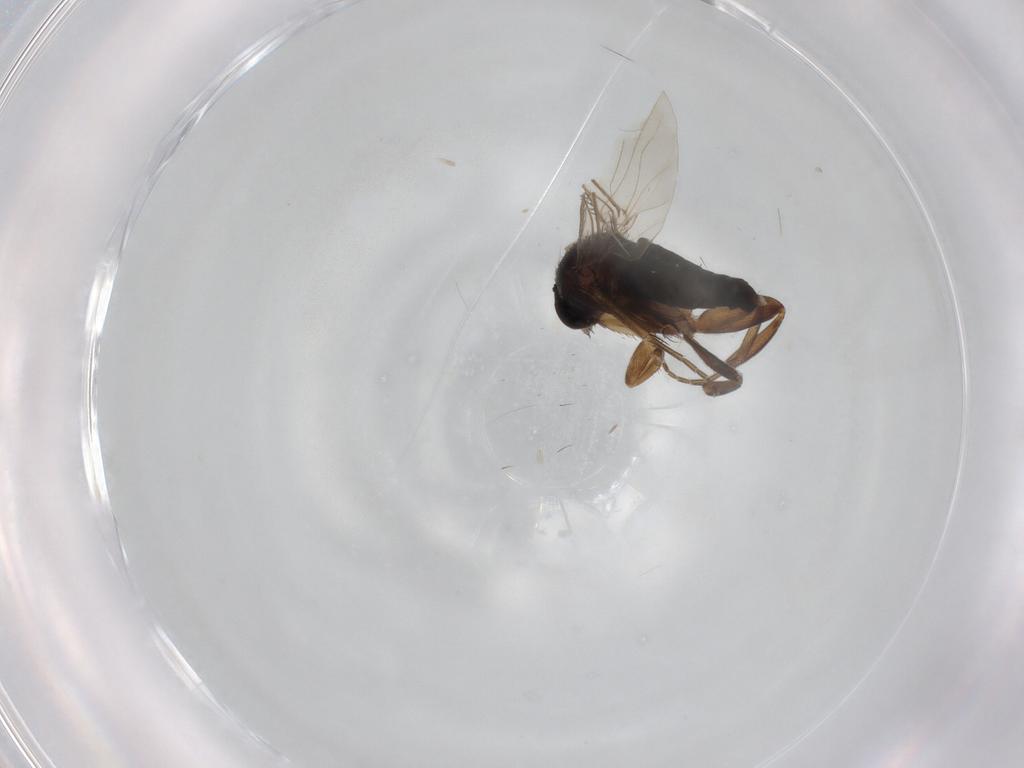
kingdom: Animalia
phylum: Arthropoda
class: Insecta
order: Diptera
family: Phoridae
